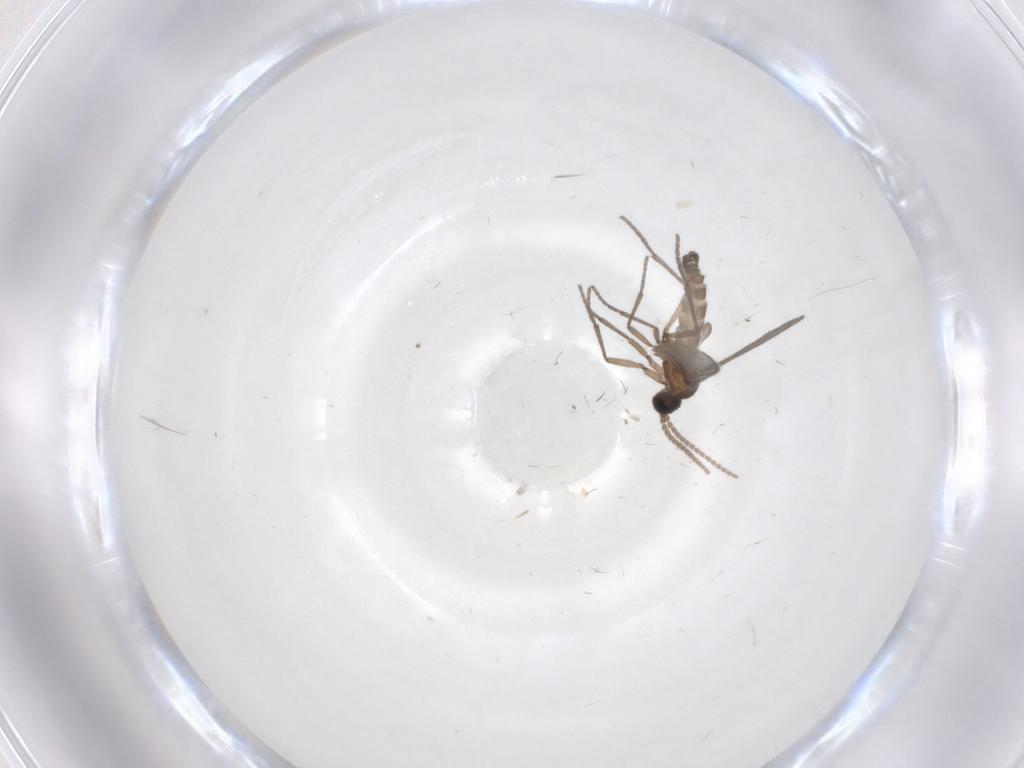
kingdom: Animalia
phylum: Arthropoda
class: Insecta
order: Diptera
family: Sciaridae
